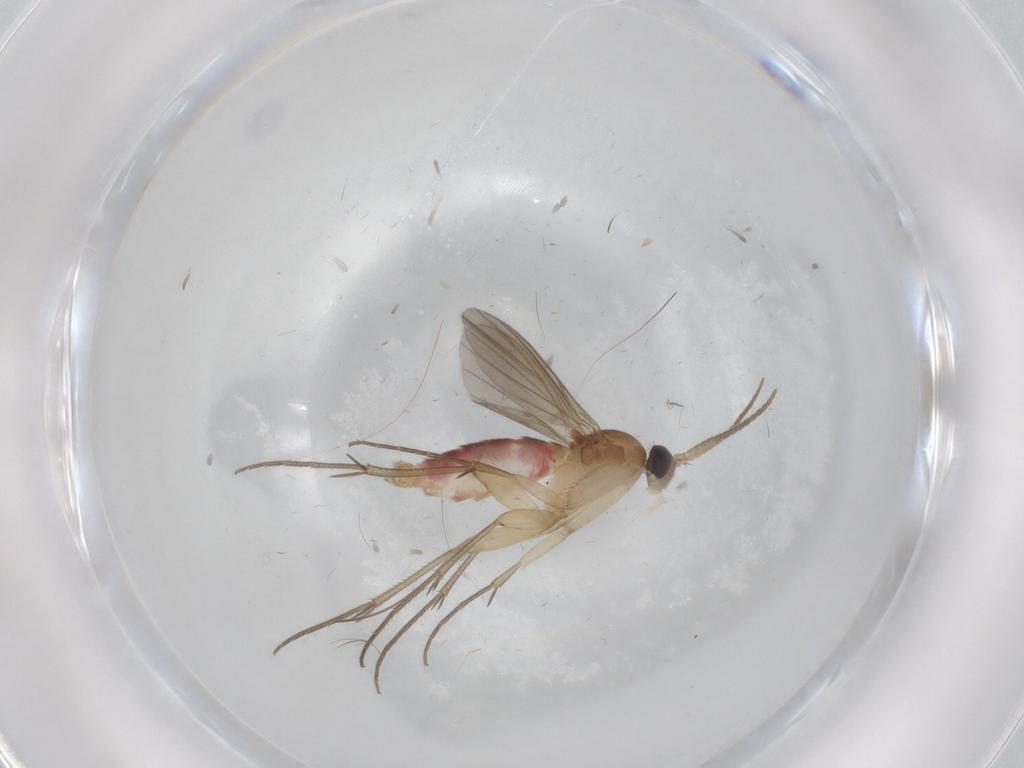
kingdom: Animalia
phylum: Arthropoda
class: Insecta
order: Diptera
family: Mycetophilidae
